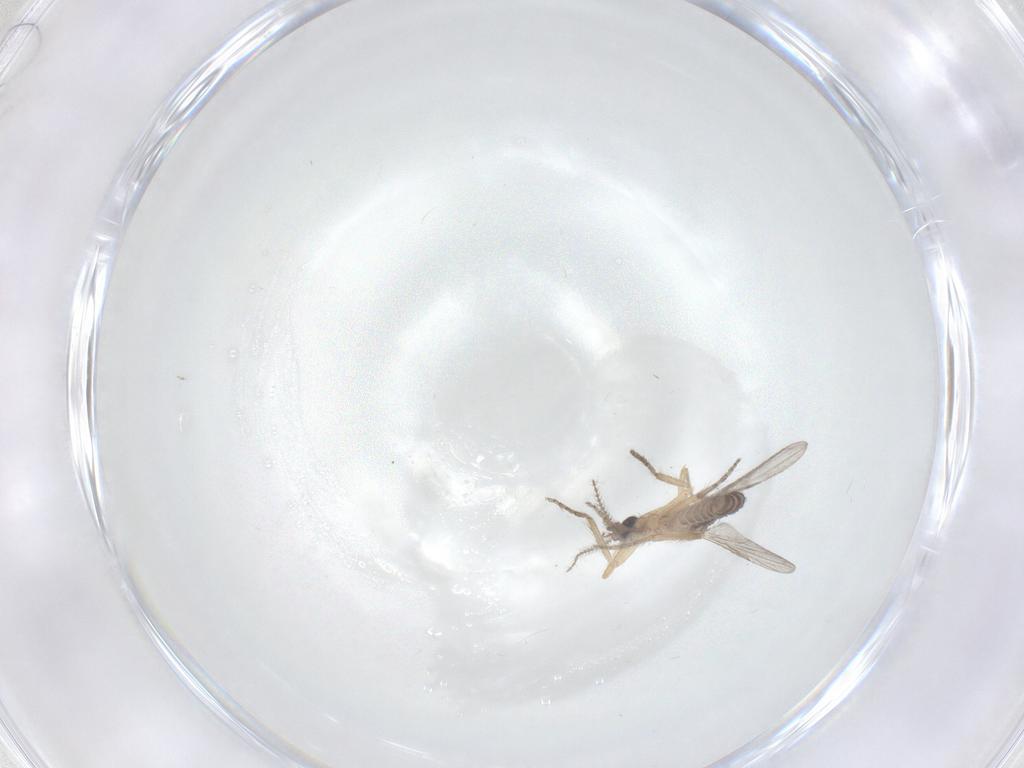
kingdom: Animalia
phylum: Arthropoda
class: Insecta
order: Diptera
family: Ceratopogonidae
